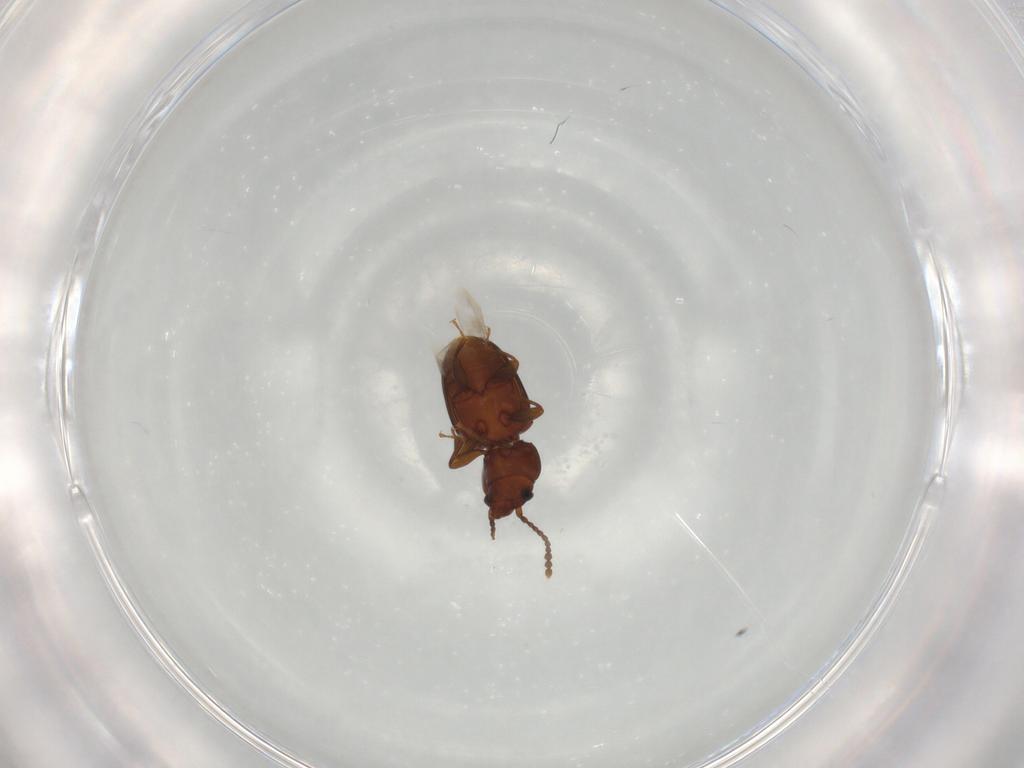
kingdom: Animalia
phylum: Arthropoda
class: Insecta
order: Coleoptera
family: Laemophloeidae
